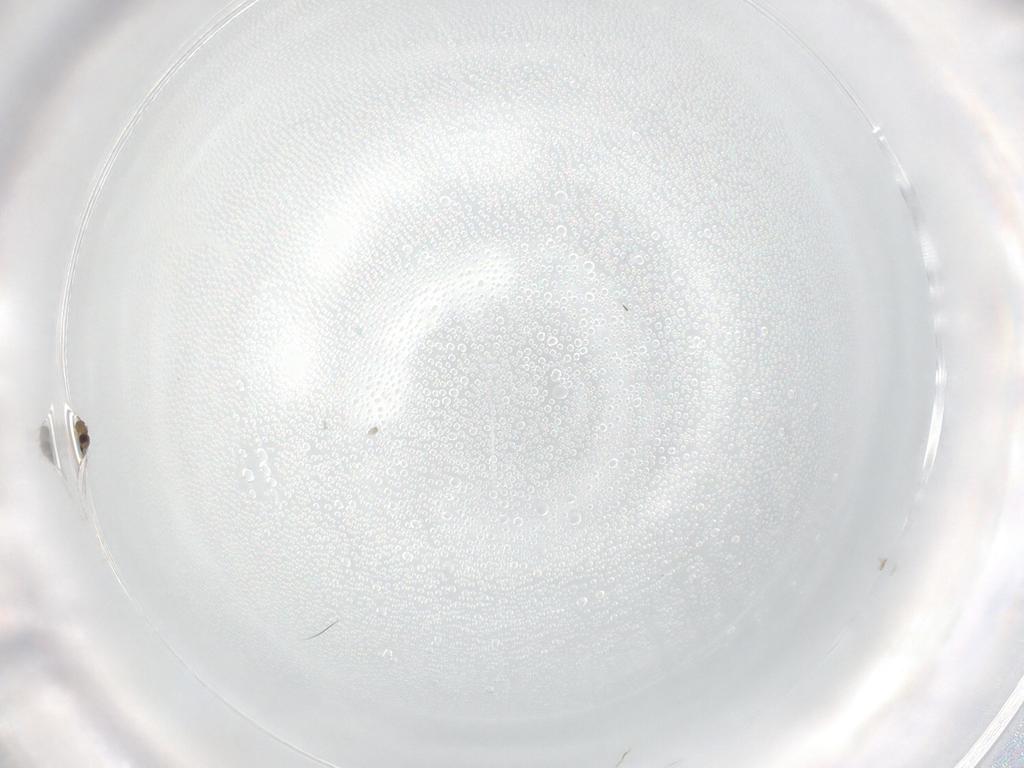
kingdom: Animalia
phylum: Arthropoda
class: Insecta
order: Diptera
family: Cecidomyiidae
